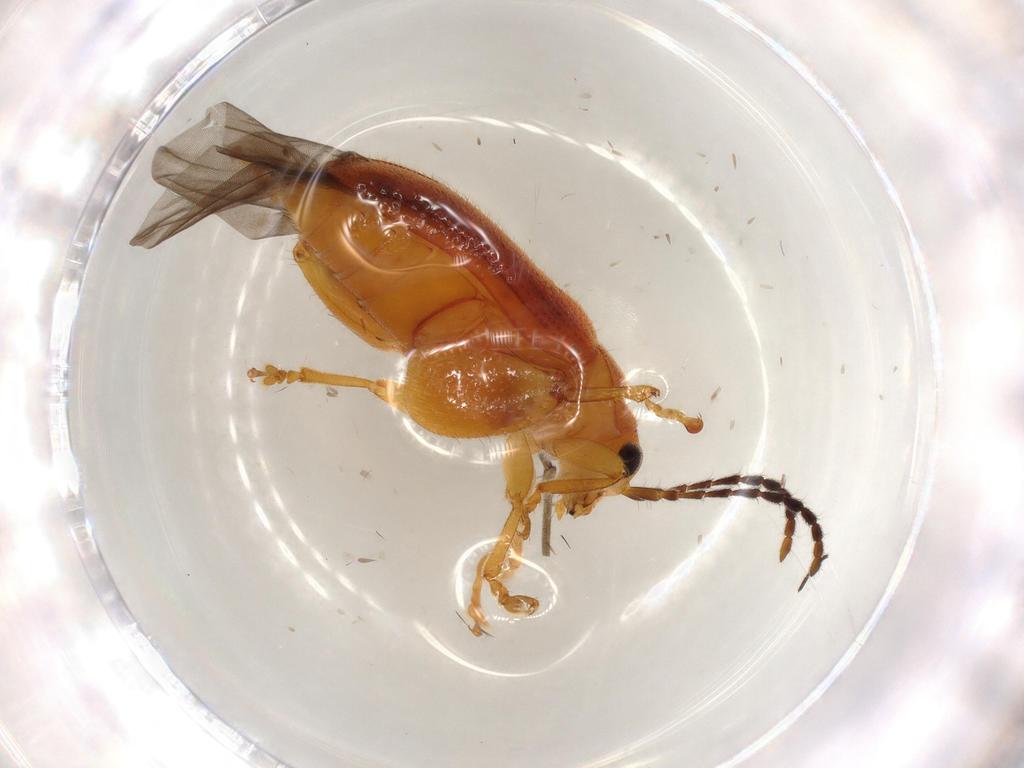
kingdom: Animalia
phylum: Arthropoda
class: Insecta
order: Coleoptera
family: Chrysomelidae
